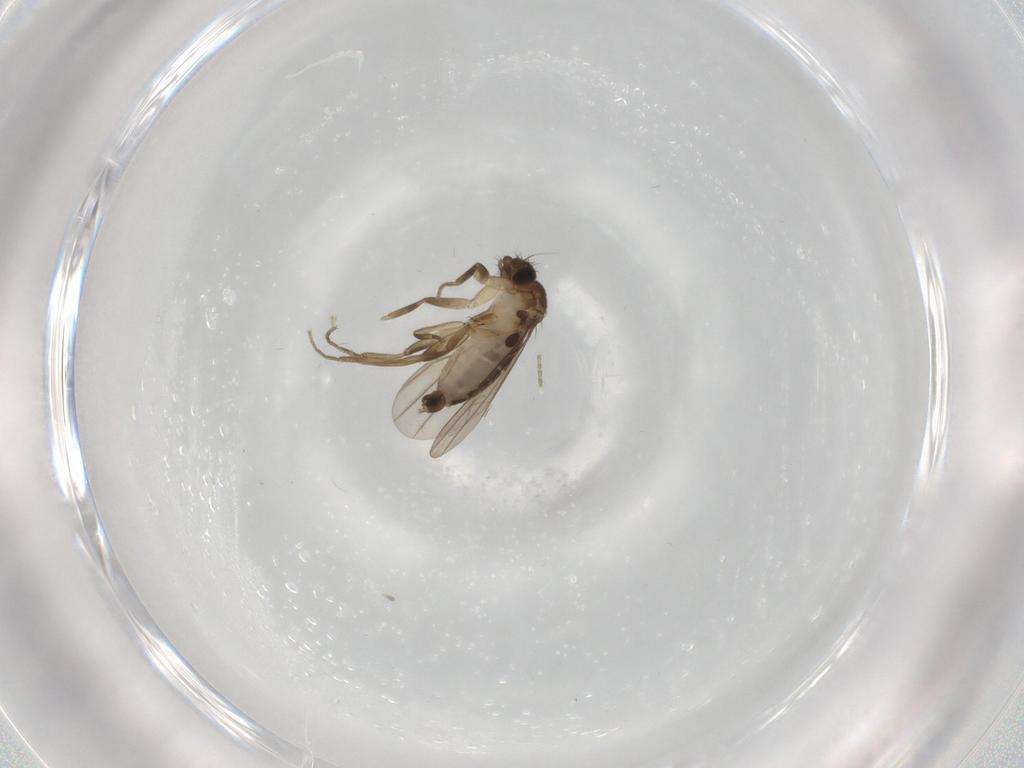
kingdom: Animalia
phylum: Arthropoda
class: Insecta
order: Diptera
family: Phoridae
